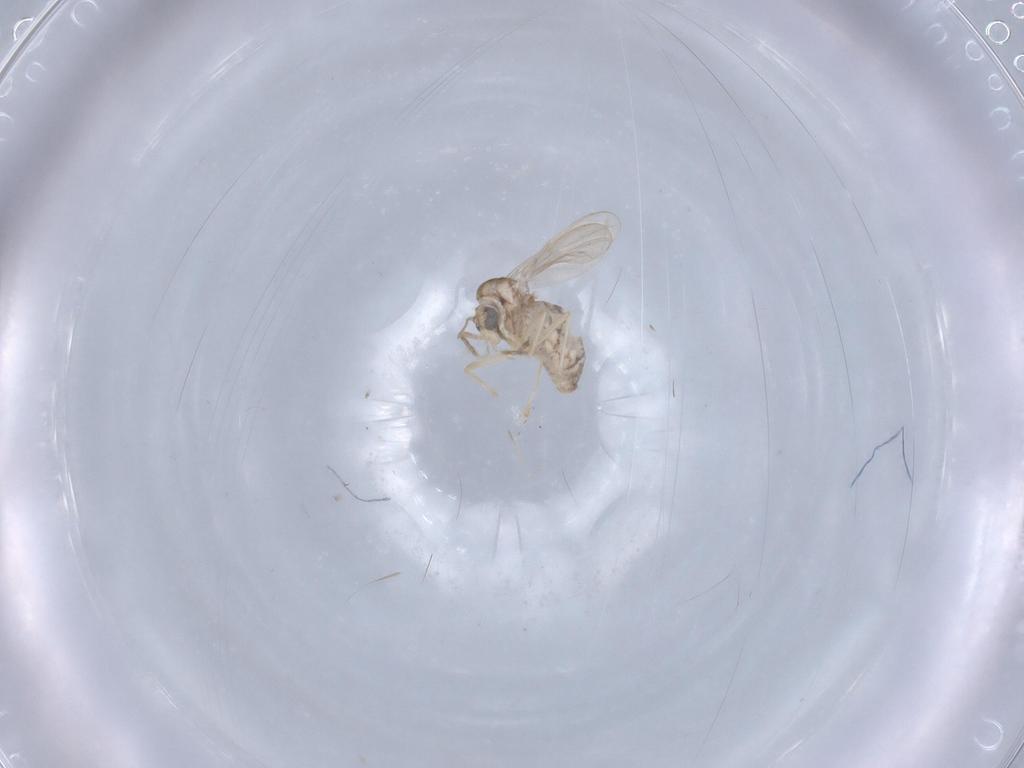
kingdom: Animalia
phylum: Arthropoda
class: Insecta
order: Diptera
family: Chironomidae
